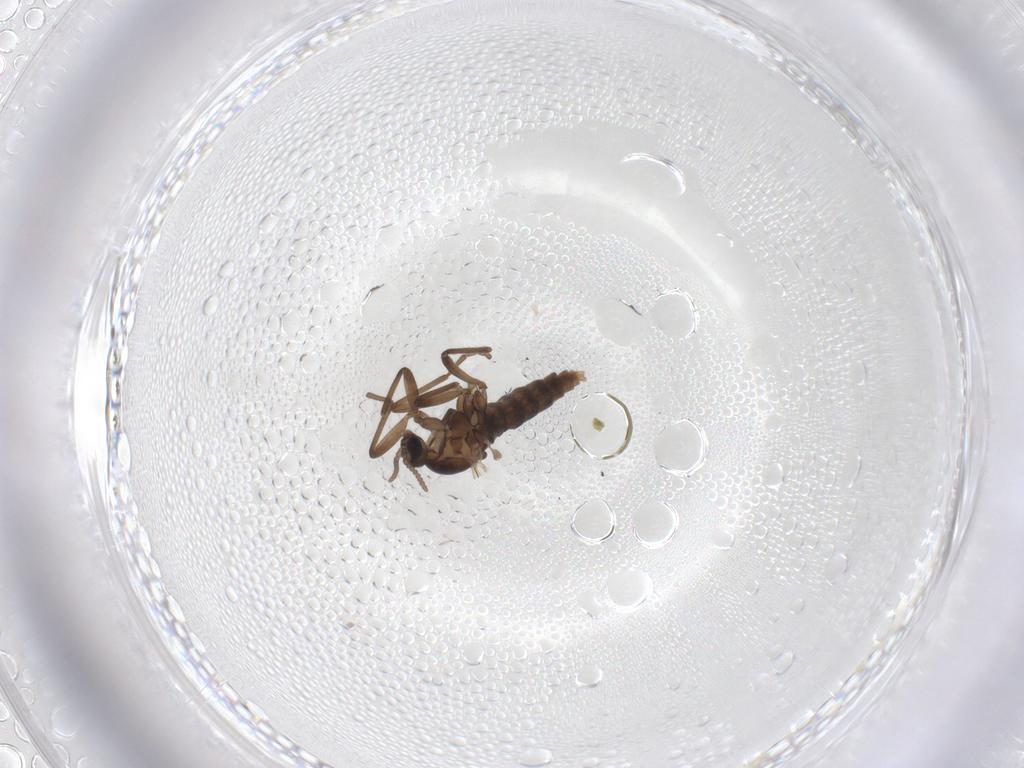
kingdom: Animalia
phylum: Arthropoda
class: Insecta
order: Diptera
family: Cecidomyiidae
